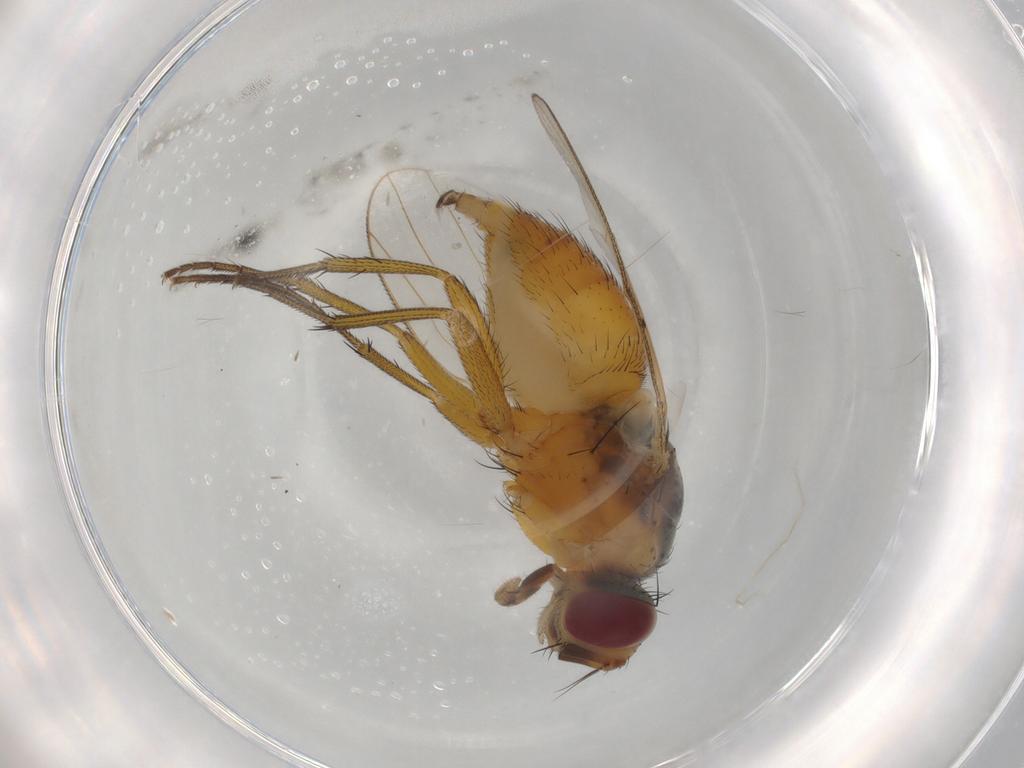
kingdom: Animalia
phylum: Arthropoda
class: Insecta
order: Diptera
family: Muscidae
